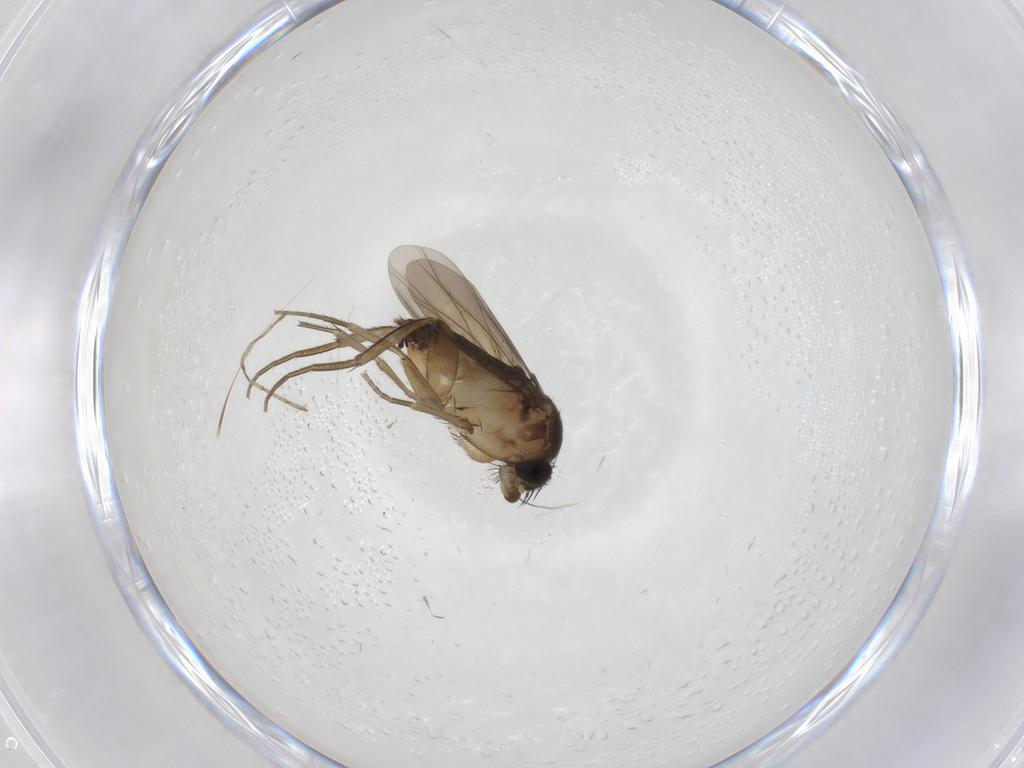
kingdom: Animalia
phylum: Arthropoda
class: Insecta
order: Diptera
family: Phoridae
